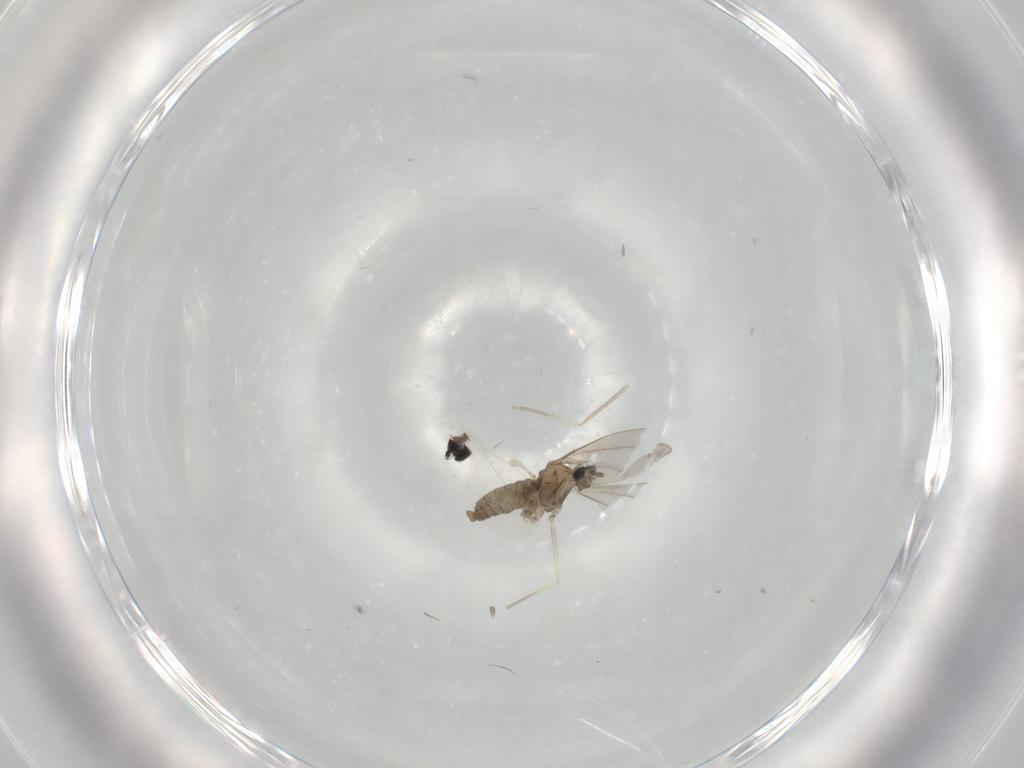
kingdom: Animalia
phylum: Arthropoda
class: Insecta
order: Diptera
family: Cecidomyiidae
